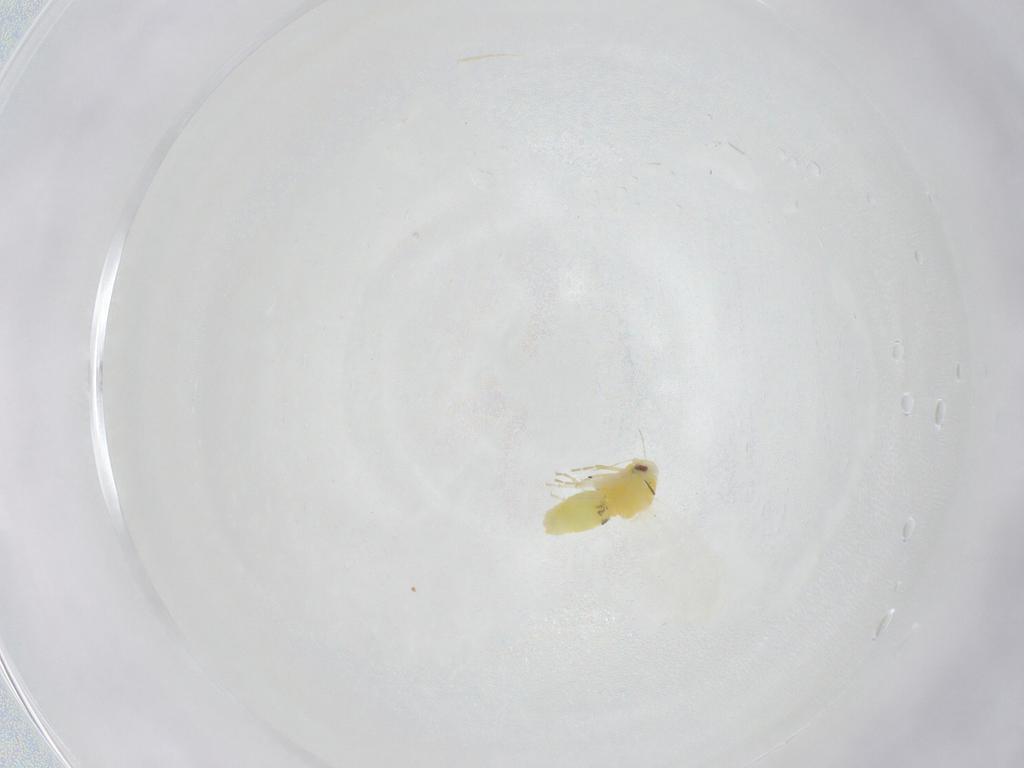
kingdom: Animalia
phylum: Arthropoda
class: Insecta
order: Hemiptera
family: Aleyrodidae
